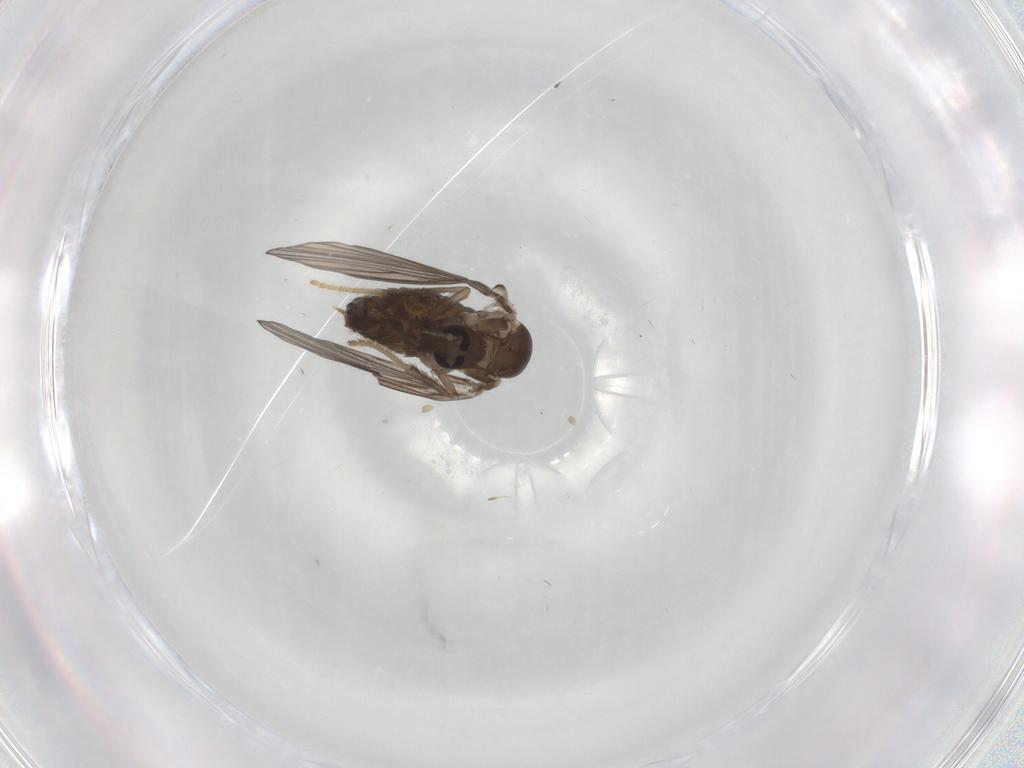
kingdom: Animalia
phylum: Arthropoda
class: Insecta
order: Diptera
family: Psychodidae
